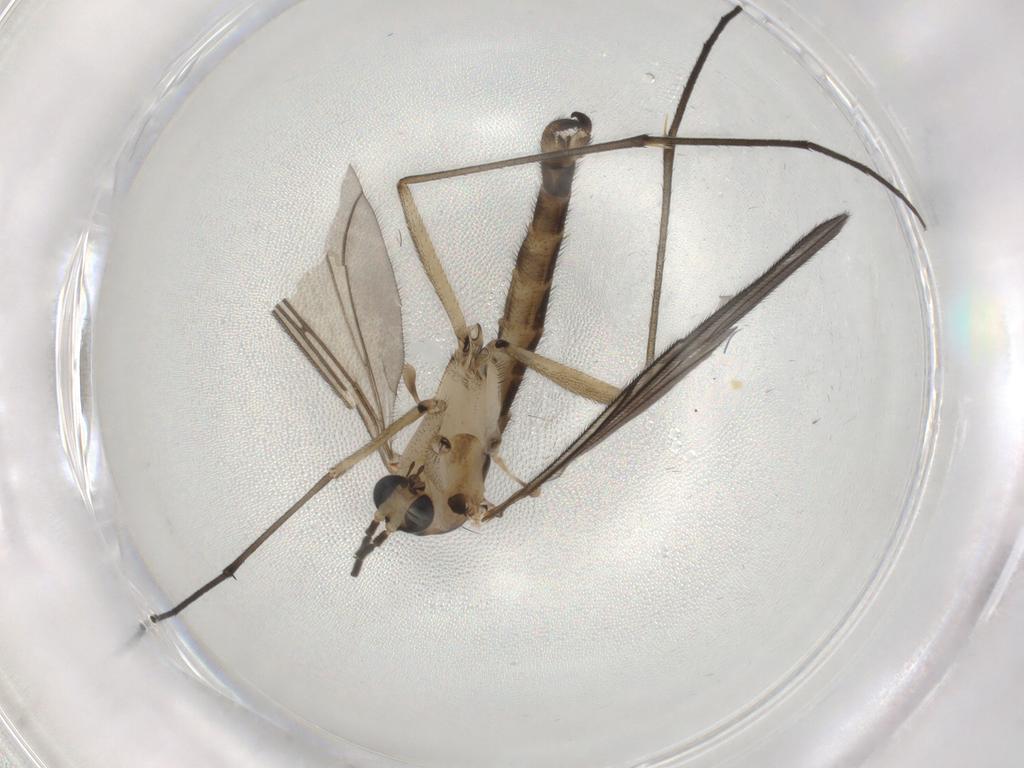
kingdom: Animalia
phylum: Arthropoda
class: Insecta
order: Diptera
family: Sciaridae
